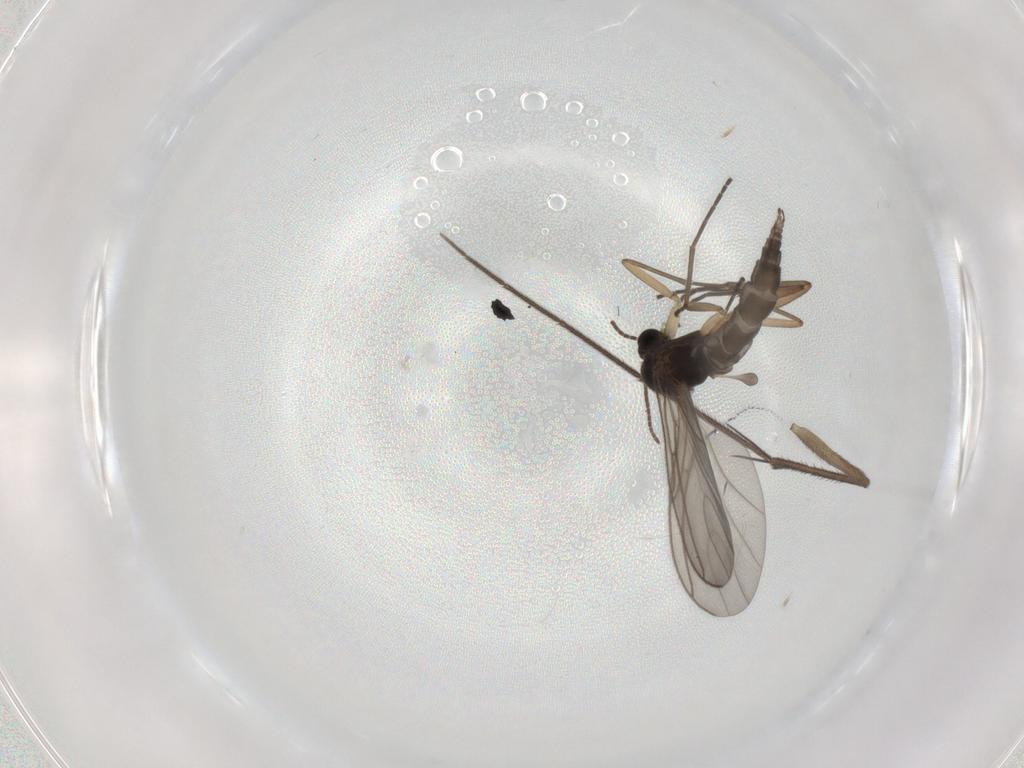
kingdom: Animalia
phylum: Arthropoda
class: Insecta
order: Diptera
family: Sciaridae
